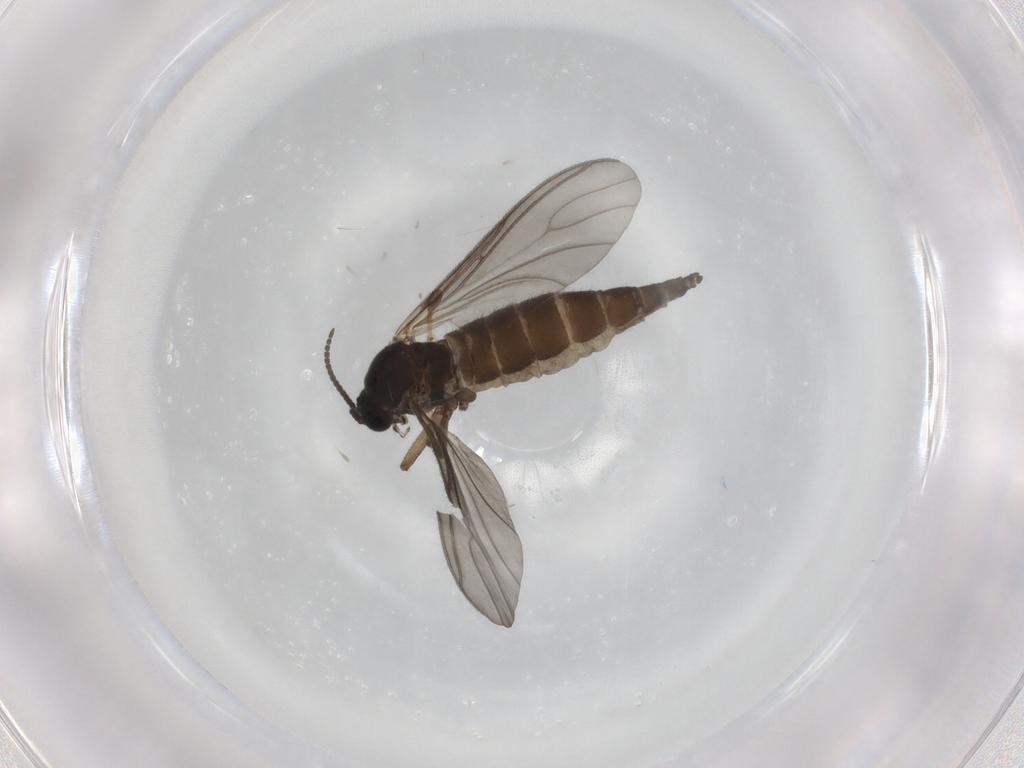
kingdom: Animalia
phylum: Arthropoda
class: Insecta
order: Diptera
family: Sciaridae
